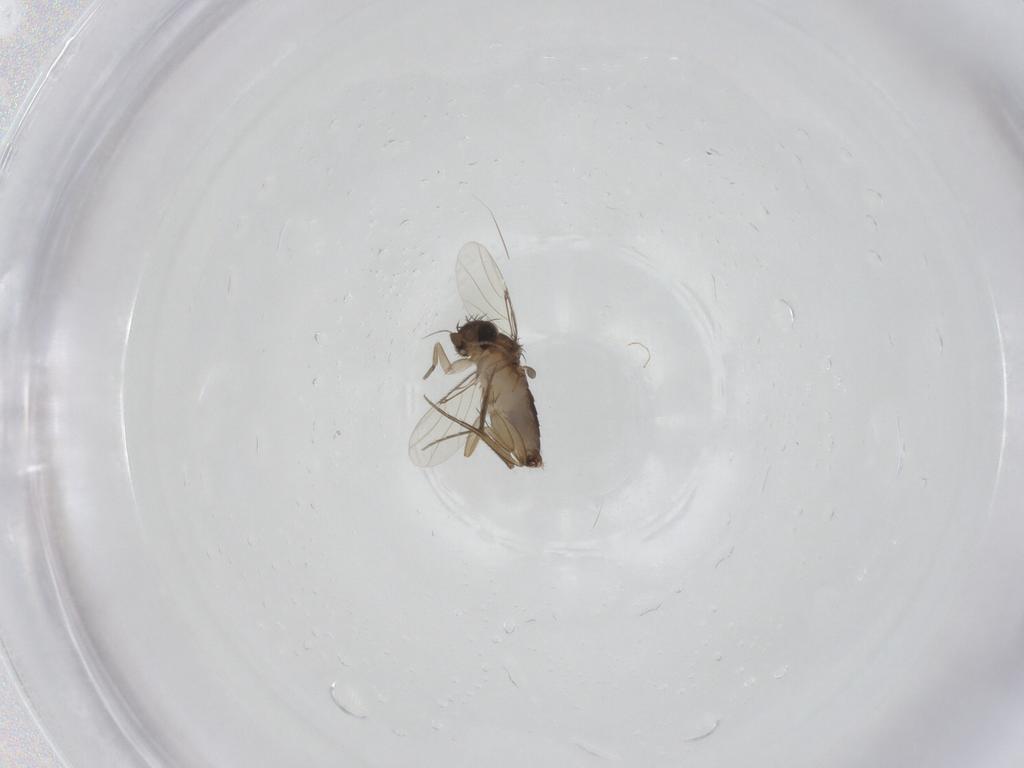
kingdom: Animalia
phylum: Arthropoda
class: Insecta
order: Diptera
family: Phoridae
